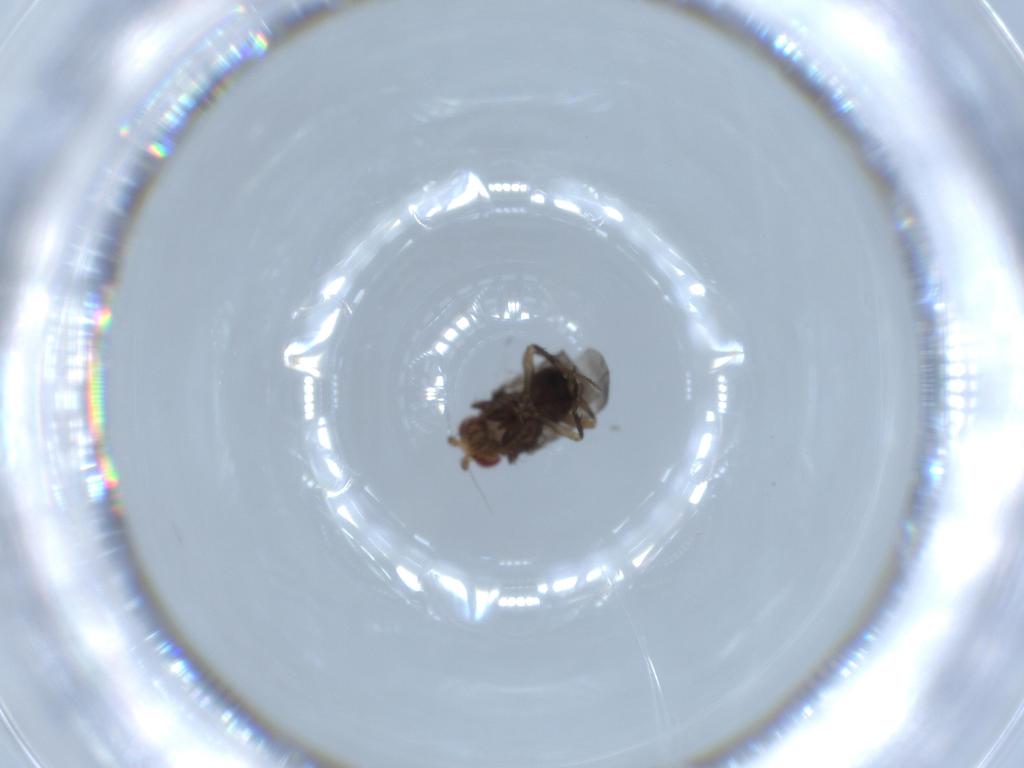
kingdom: Animalia
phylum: Arthropoda
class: Insecta
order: Diptera
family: Sphaeroceridae
